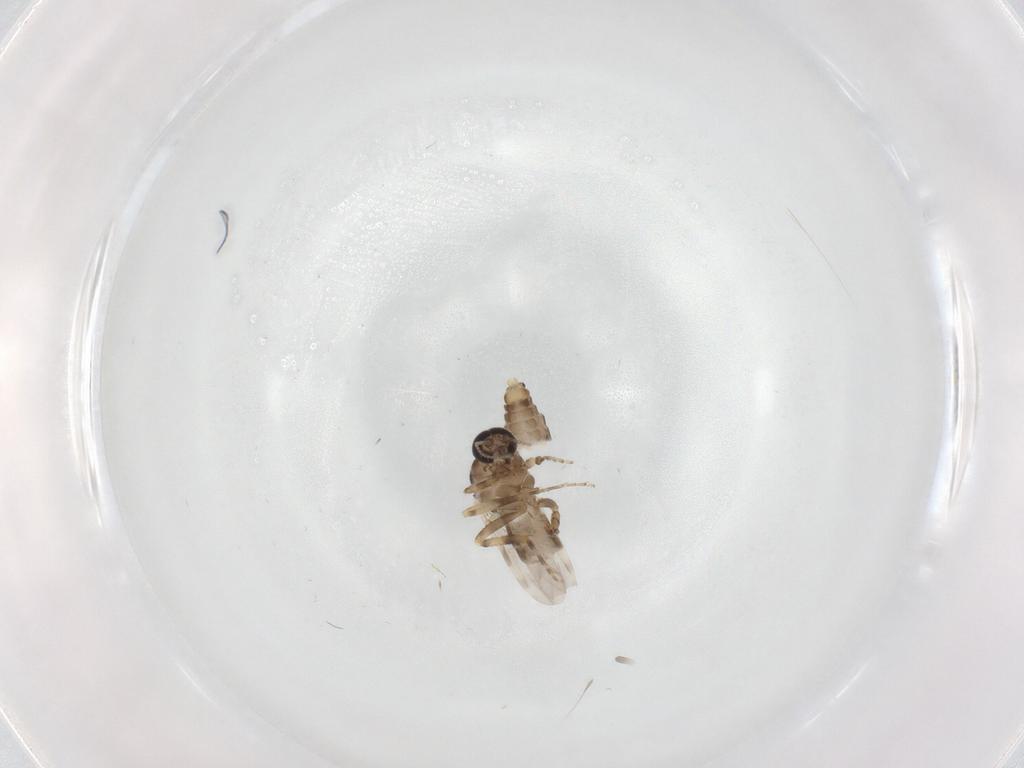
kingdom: Animalia
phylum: Arthropoda
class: Insecta
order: Diptera
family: Ceratopogonidae
